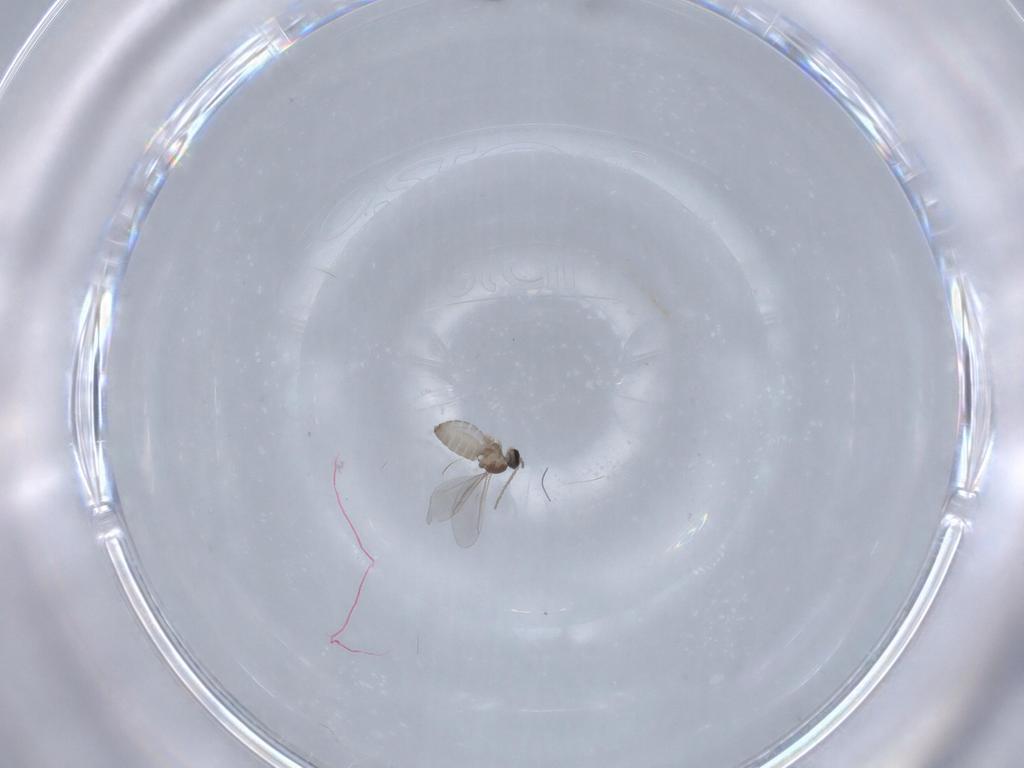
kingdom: Animalia
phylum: Arthropoda
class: Insecta
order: Diptera
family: Cecidomyiidae
